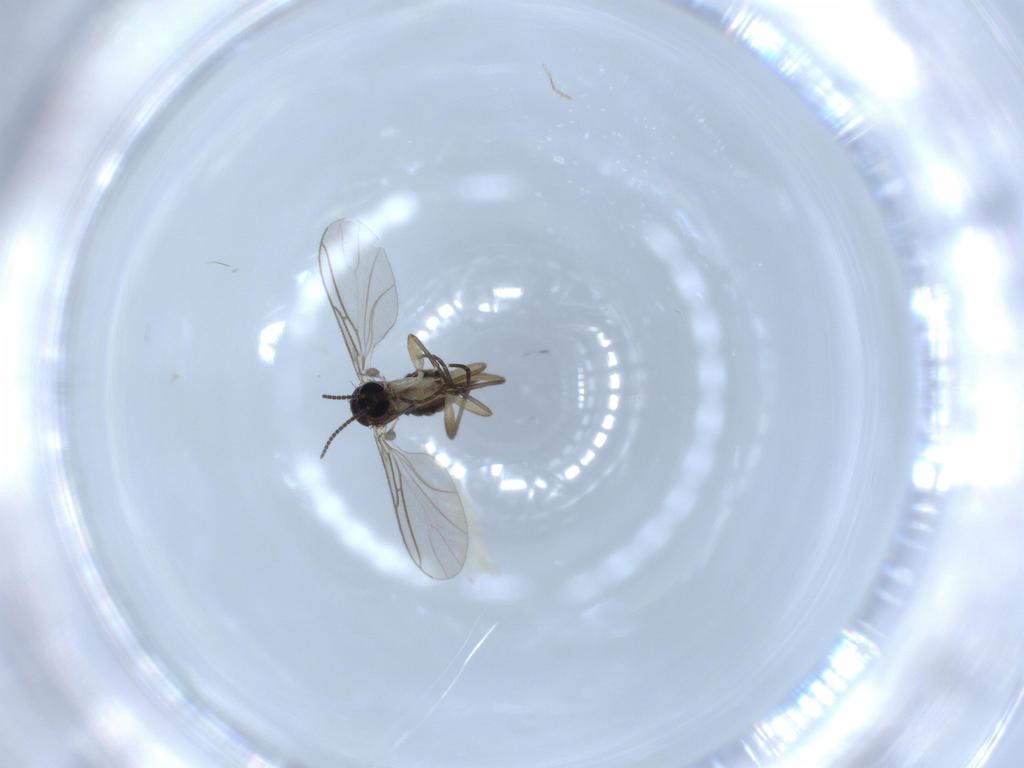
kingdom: Animalia
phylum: Arthropoda
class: Insecta
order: Diptera
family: Sciaridae
